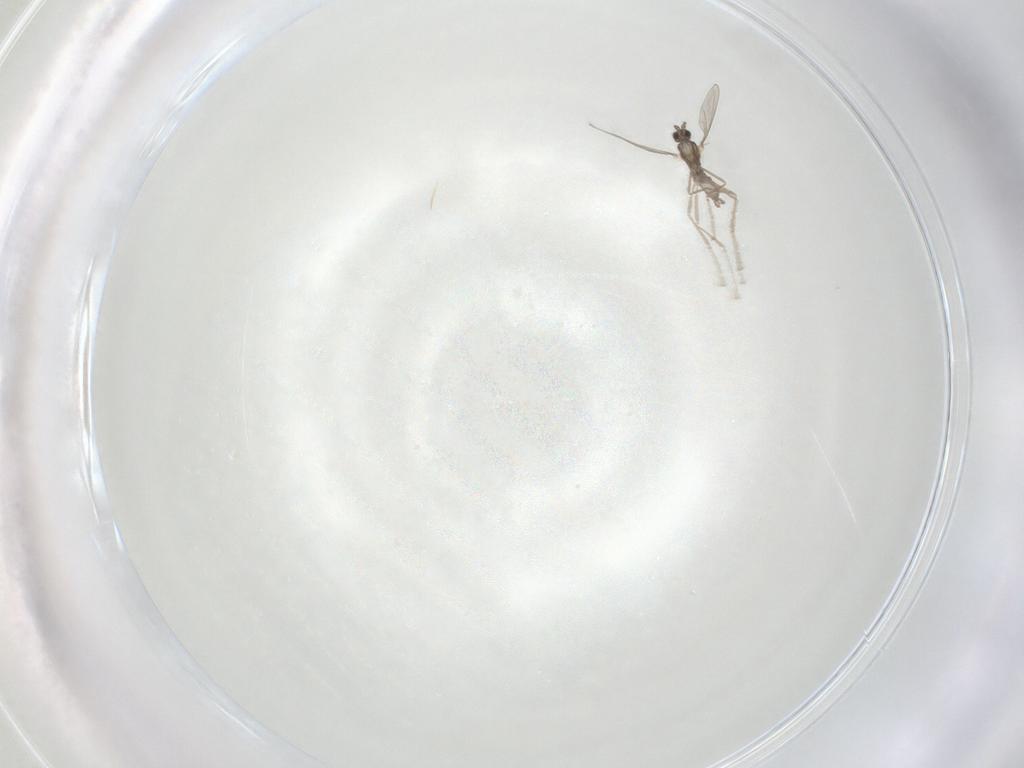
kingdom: Animalia
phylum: Arthropoda
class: Insecta
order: Diptera
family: Cecidomyiidae
